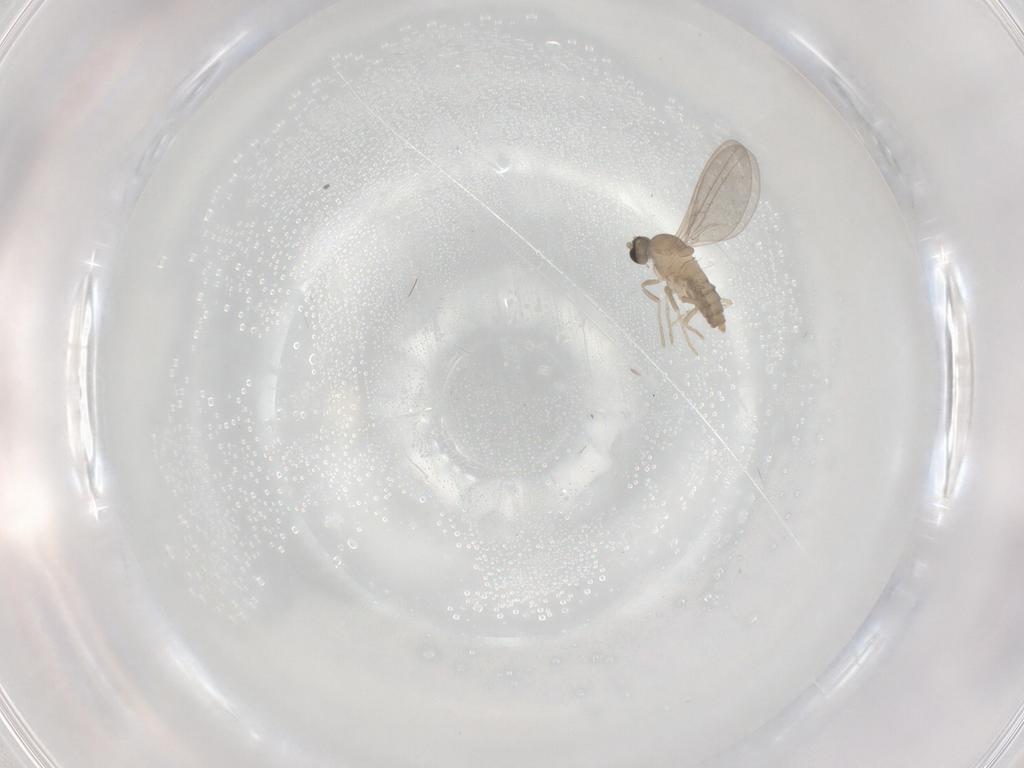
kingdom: Animalia
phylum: Arthropoda
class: Insecta
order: Diptera
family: Cecidomyiidae
